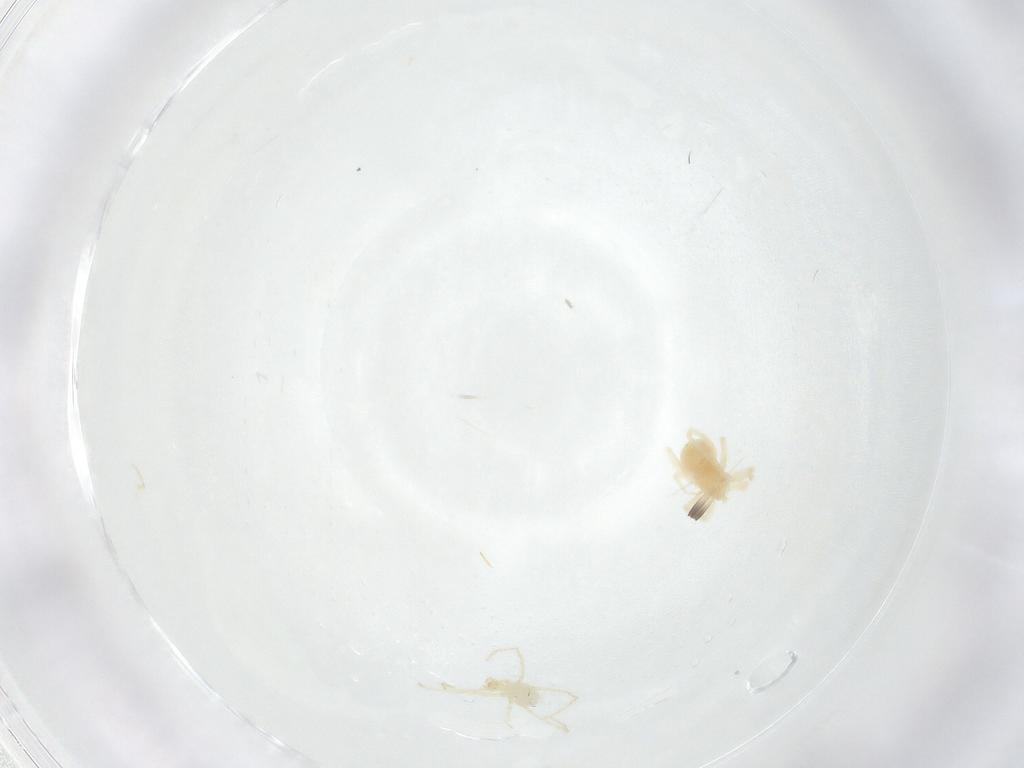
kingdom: Animalia
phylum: Arthropoda
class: Arachnida
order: Trombidiformes
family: Anystidae
